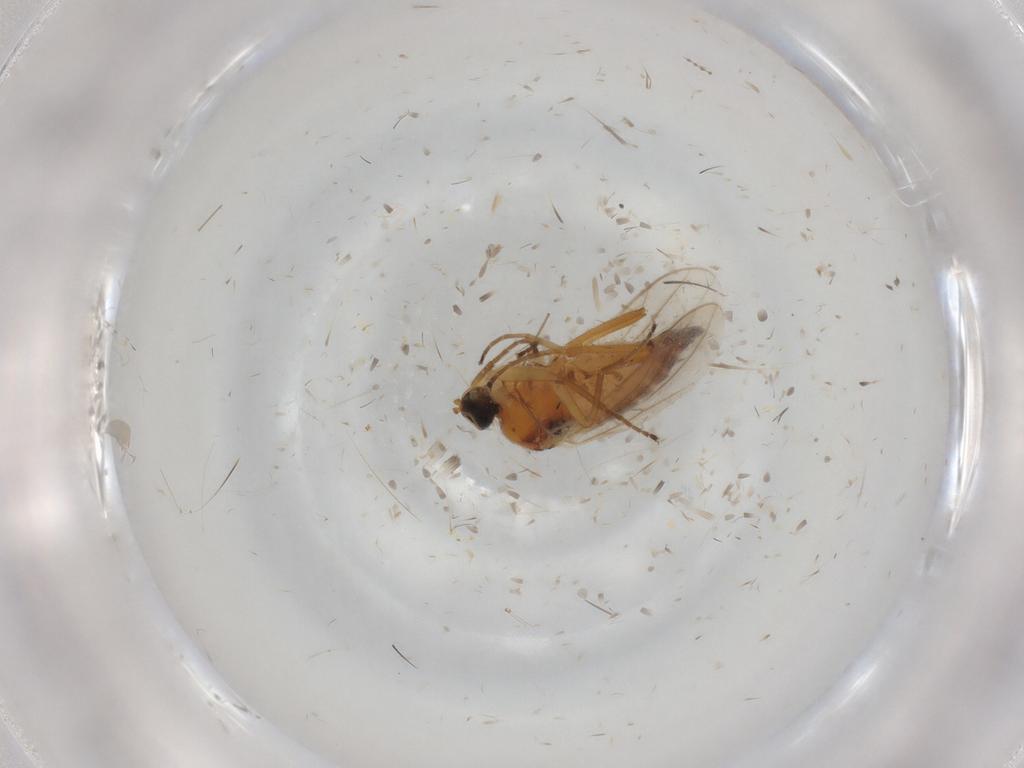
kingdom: Animalia
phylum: Arthropoda
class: Insecta
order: Diptera
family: Hybotidae
